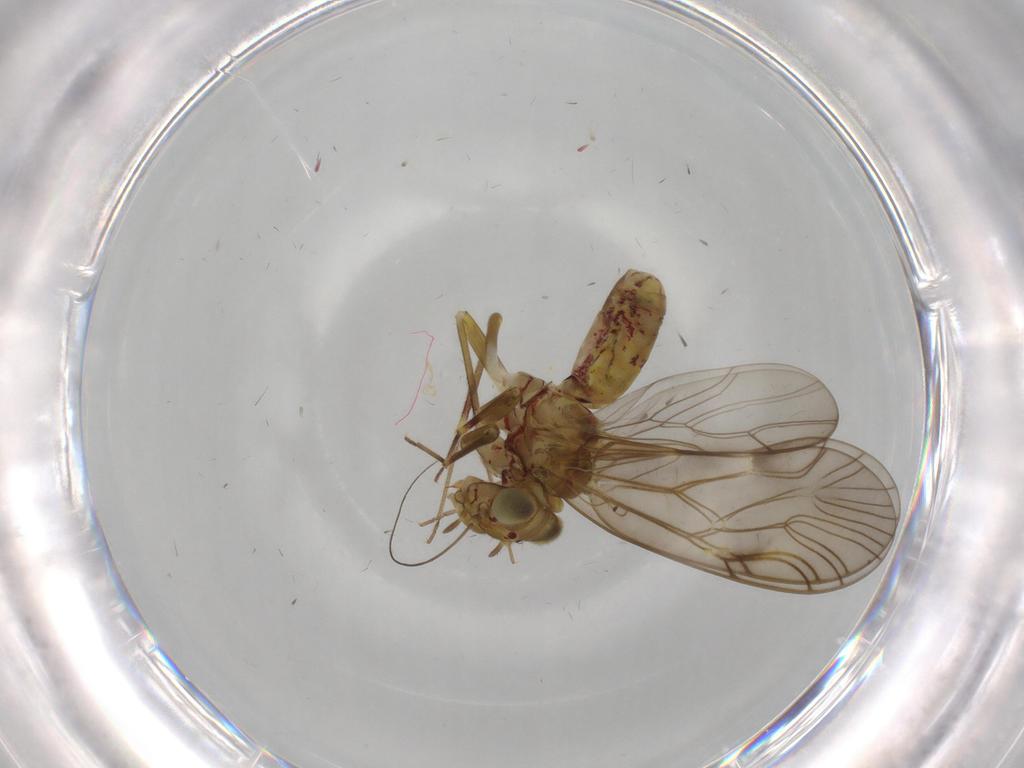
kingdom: Animalia
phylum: Arthropoda
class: Insecta
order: Psocodea
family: Philotarsidae
